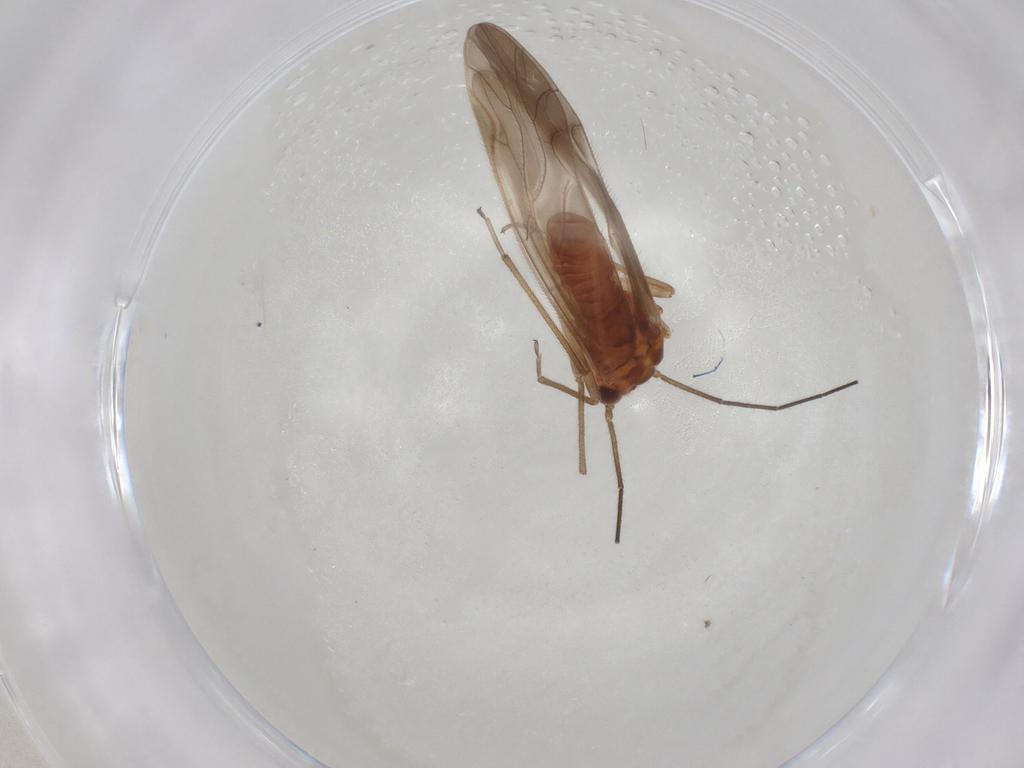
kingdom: Animalia
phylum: Arthropoda
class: Insecta
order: Psocodea
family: Caeciliusidae
